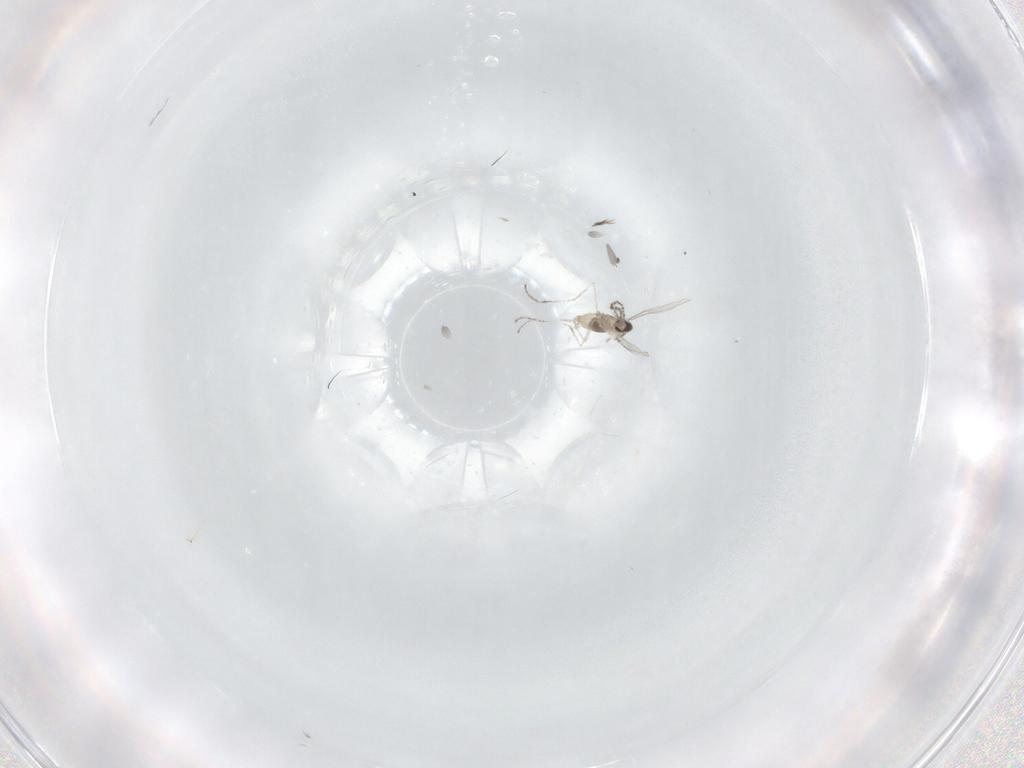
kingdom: Animalia
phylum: Arthropoda
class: Insecta
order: Diptera
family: Cecidomyiidae
